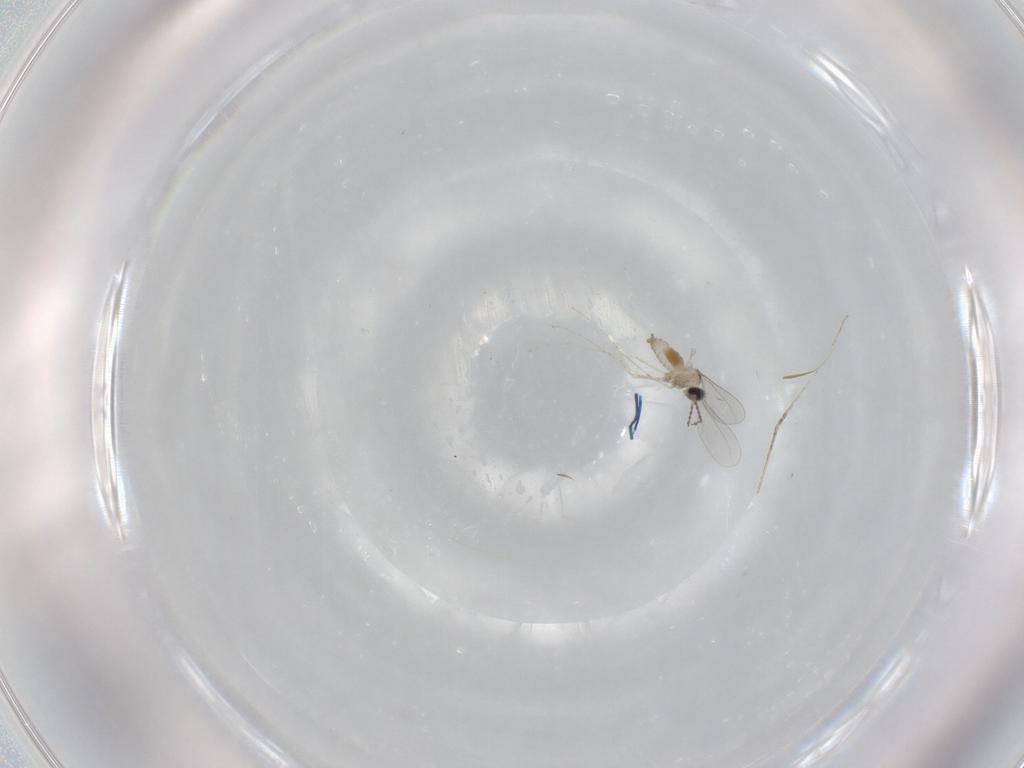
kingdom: Animalia
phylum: Arthropoda
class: Insecta
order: Diptera
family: Cecidomyiidae
